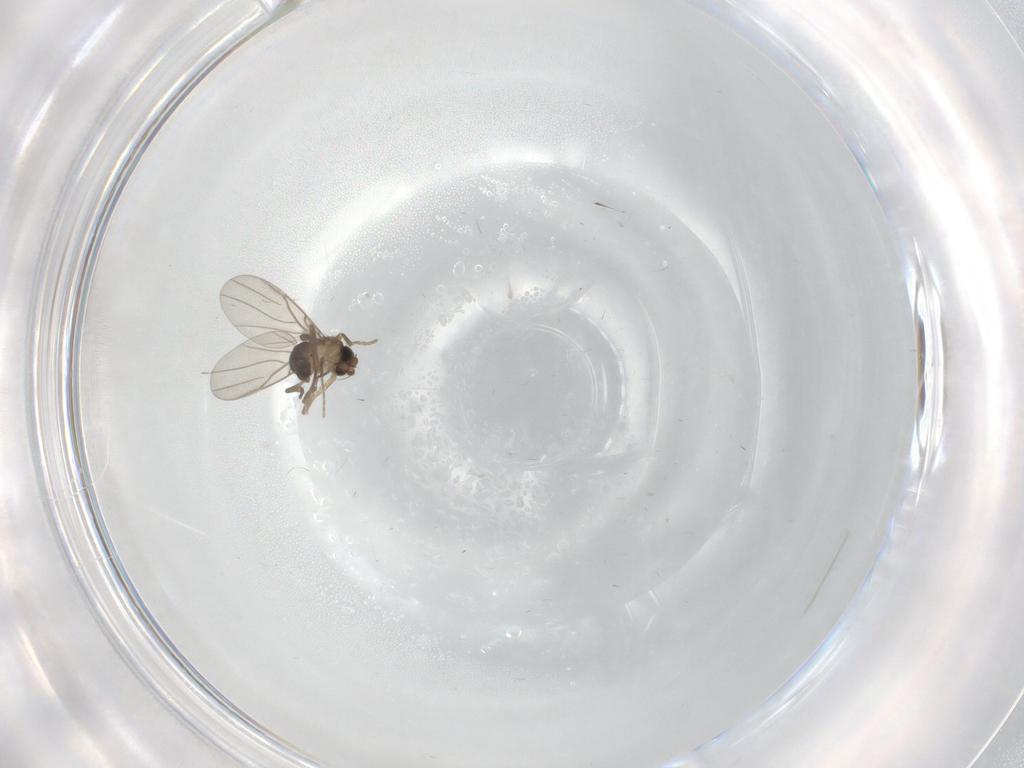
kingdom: Animalia
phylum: Arthropoda
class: Insecta
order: Diptera
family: Phoridae
